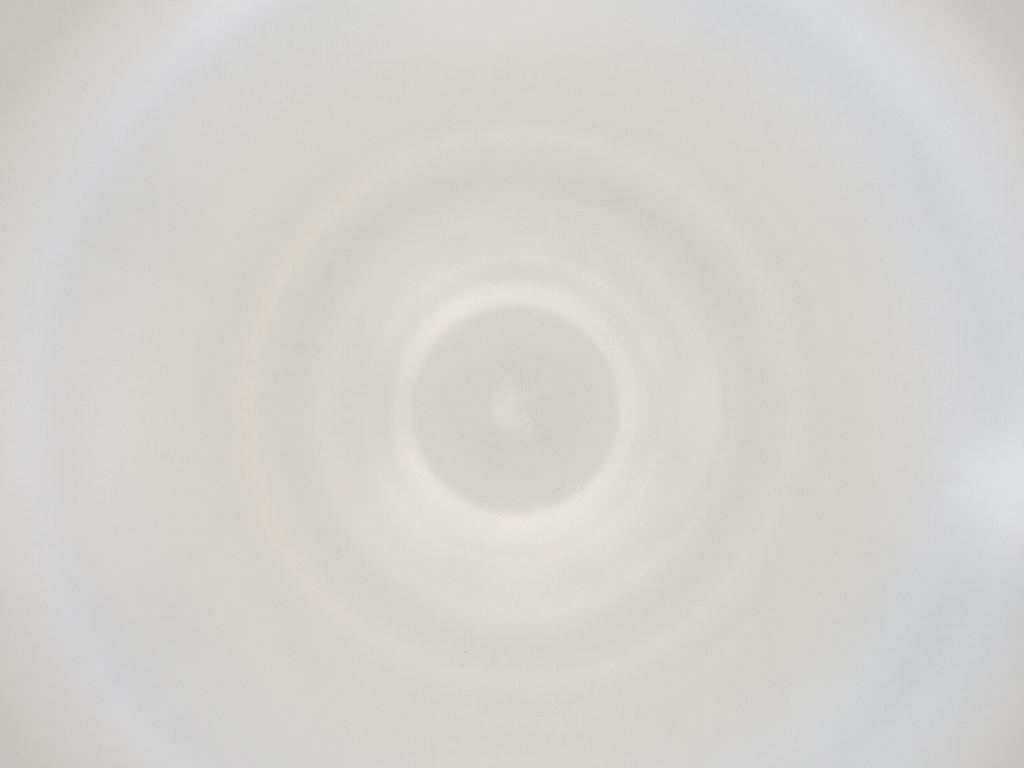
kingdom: Animalia
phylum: Arthropoda
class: Insecta
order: Diptera
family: Cecidomyiidae
